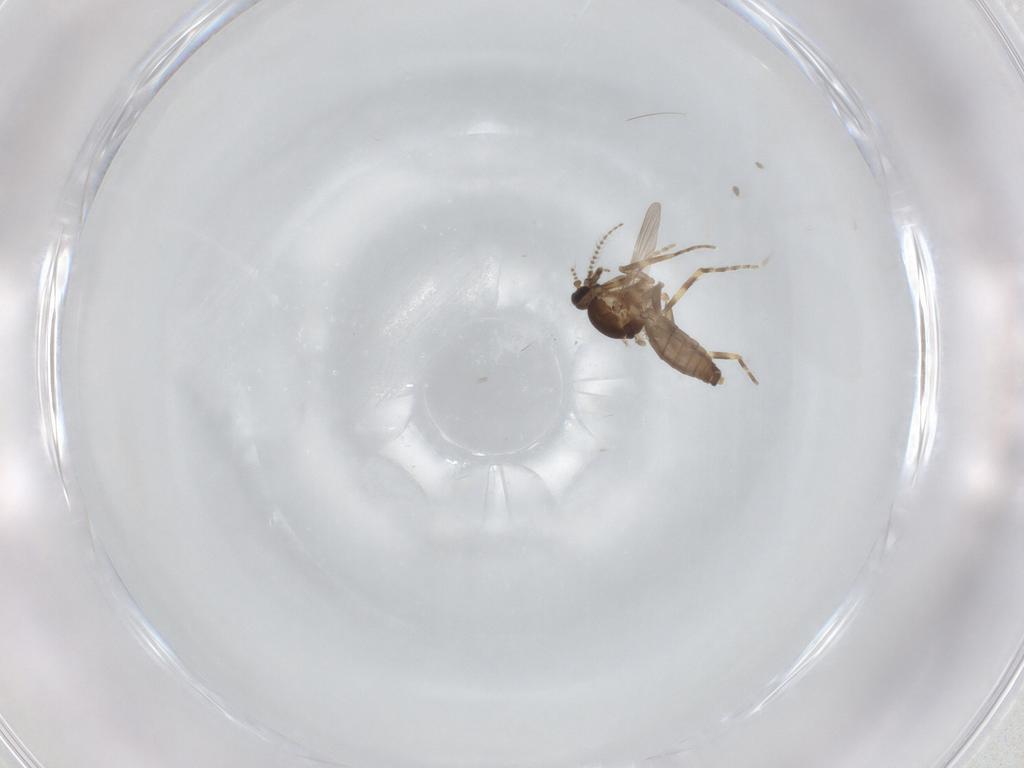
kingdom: Animalia
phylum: Arthropoda
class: Insecta
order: Diptera
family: Ceratopogonidae
